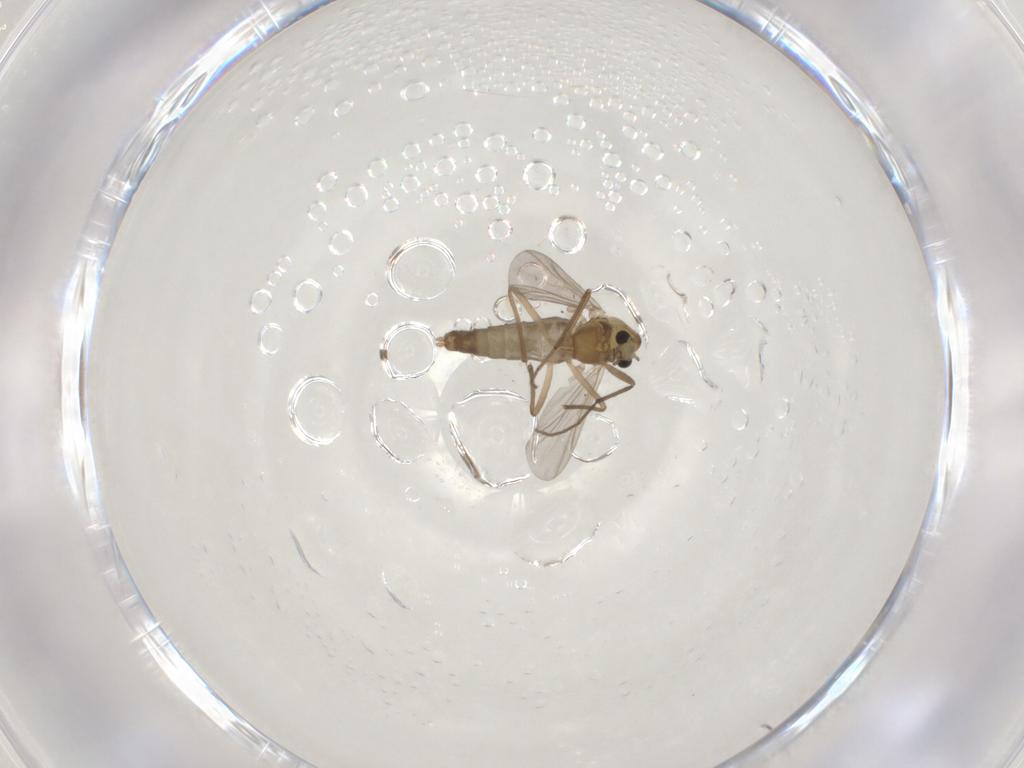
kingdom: Animalia
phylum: Arthropoda
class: Insecta
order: Diptera
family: Chironomidae
